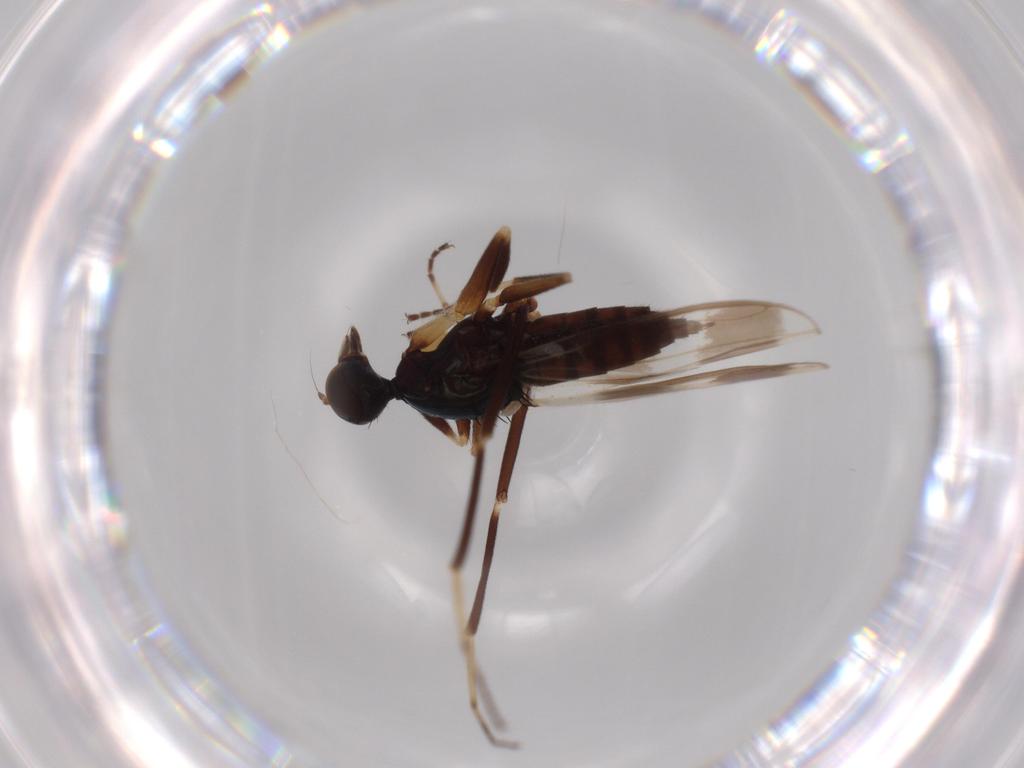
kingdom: Animalia
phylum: Arthropoda
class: Insecta
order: Diptera
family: Hybotidae
